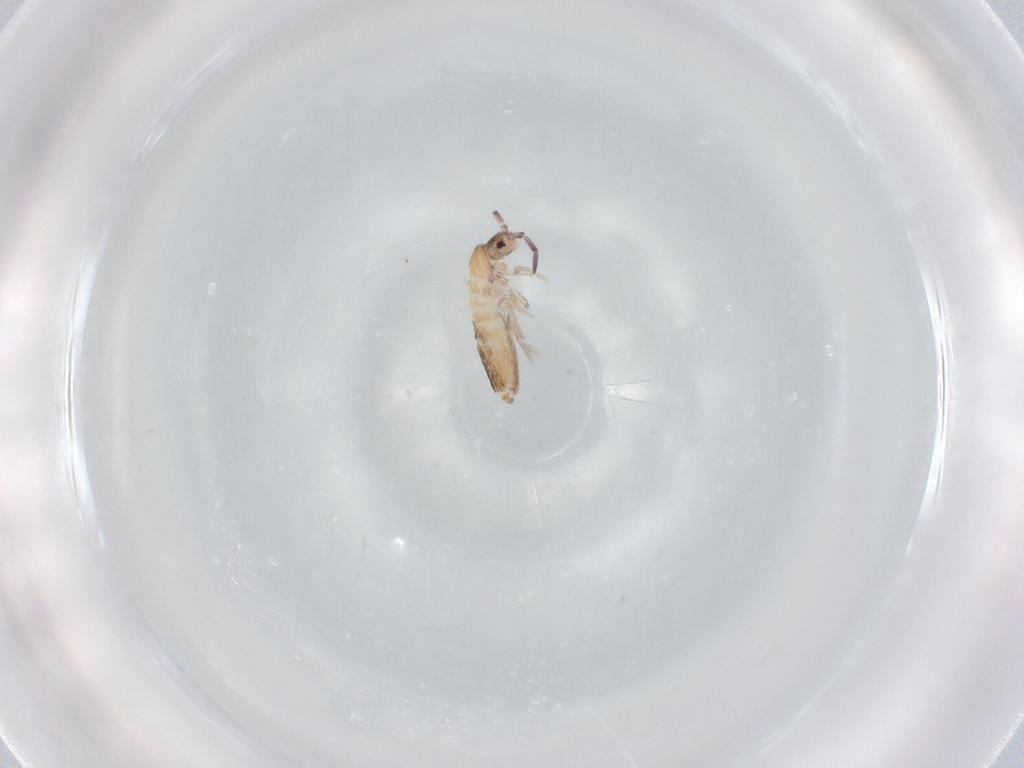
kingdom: Animalia
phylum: Arthropoda
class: Collembola
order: Entomobryomorpha
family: Entomobryidae
